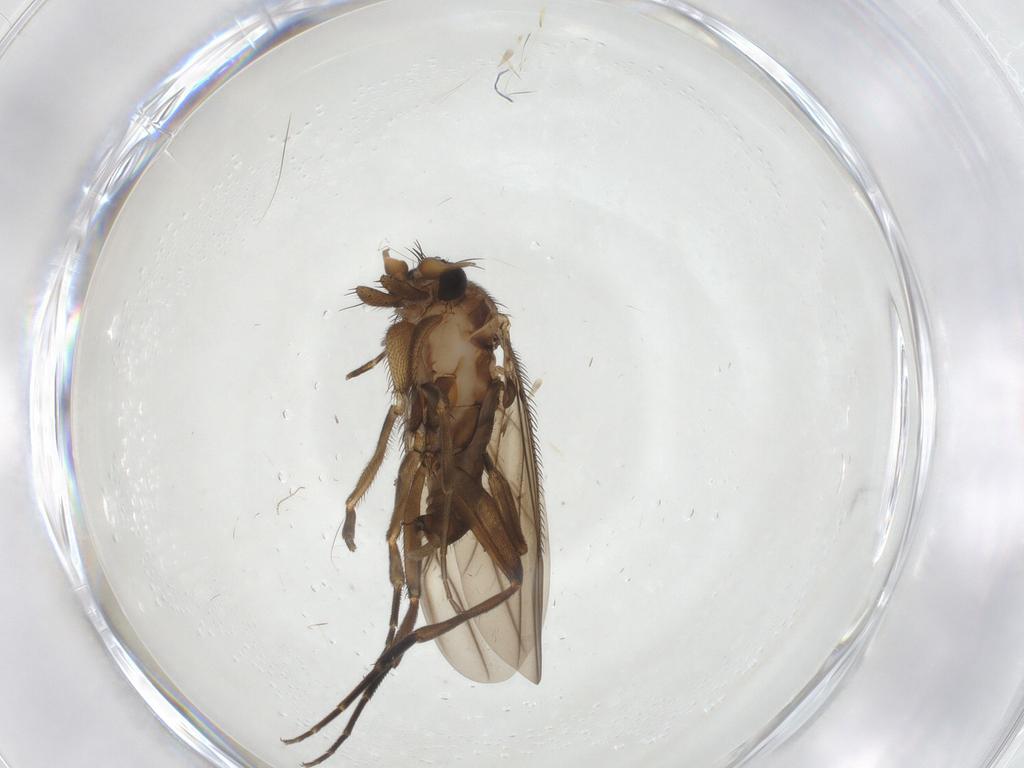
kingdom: Animalia
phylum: Arthropoda
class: Insecta
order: Diptera
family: Phoridae
